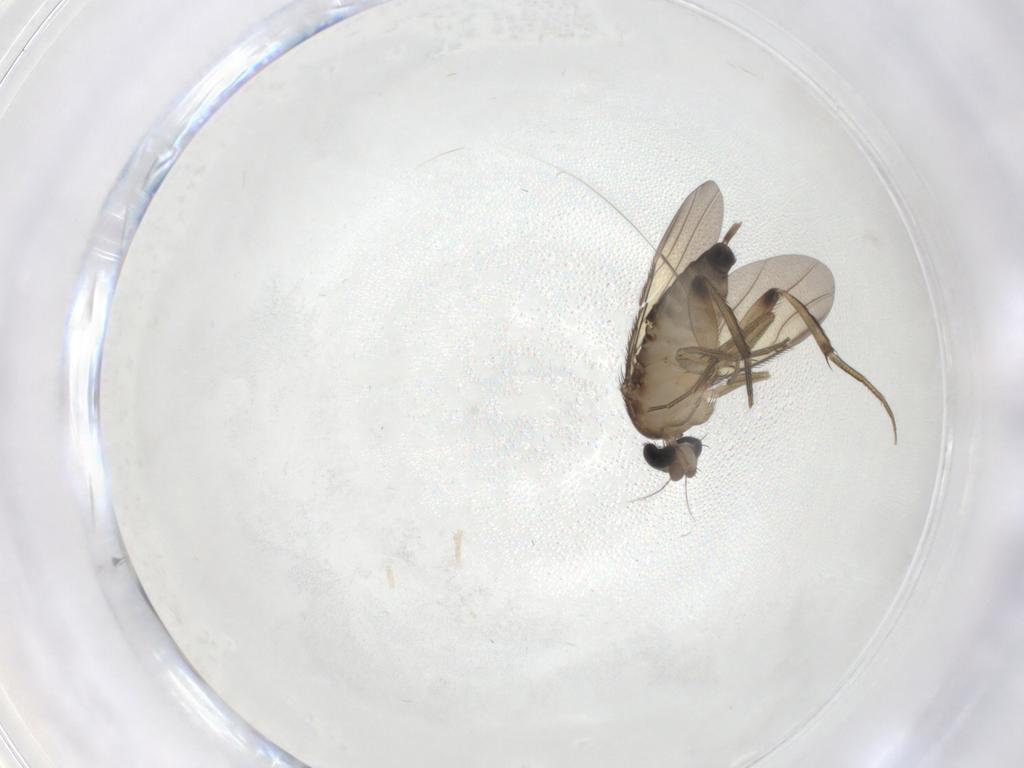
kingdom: Animalia
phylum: Arthropoda
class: Insecta
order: Diptera
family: Phoridae
